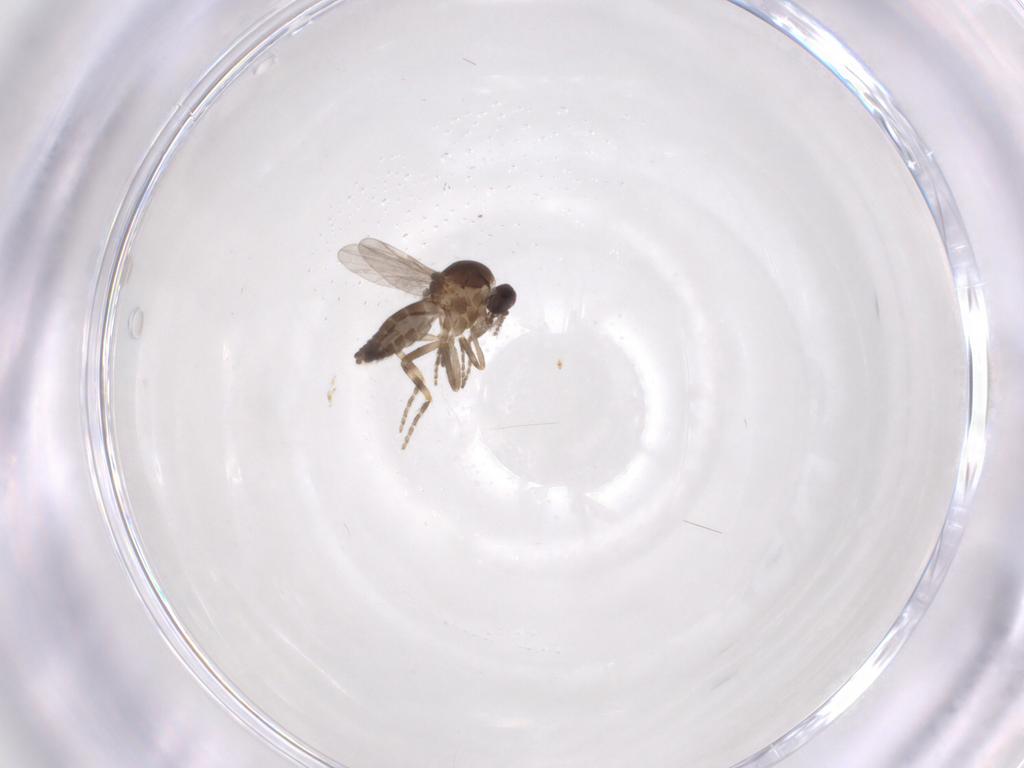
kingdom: Animalia
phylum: Arthropoda
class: Insecta
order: Diptera
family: Ceratopogonidae
